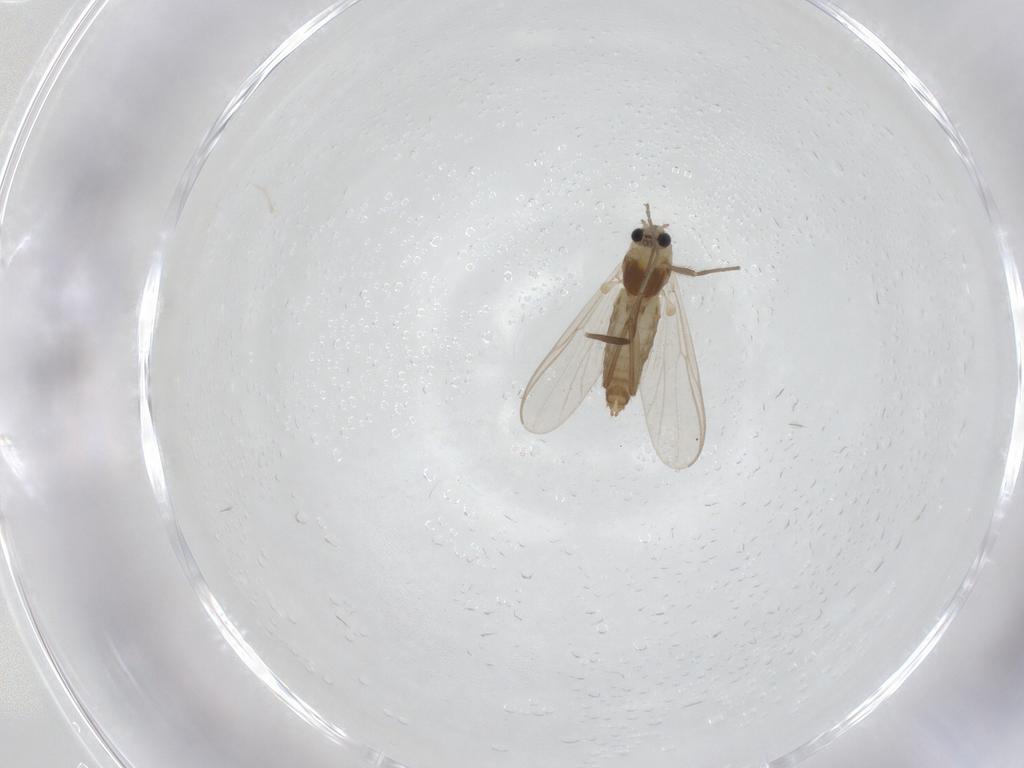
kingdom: Animalia
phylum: Arthropoda
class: Insecta
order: Diptera
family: Chironomidae
